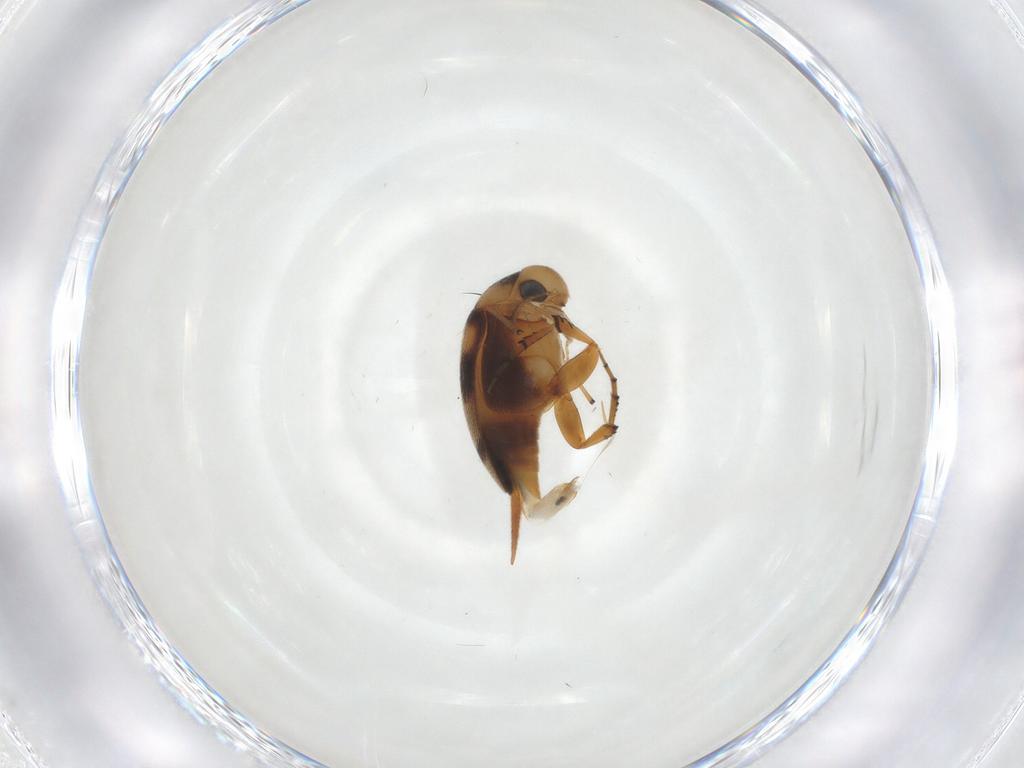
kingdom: Animalia
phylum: Arthropoda
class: Insecta
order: Coleoptera
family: Mordellidae
